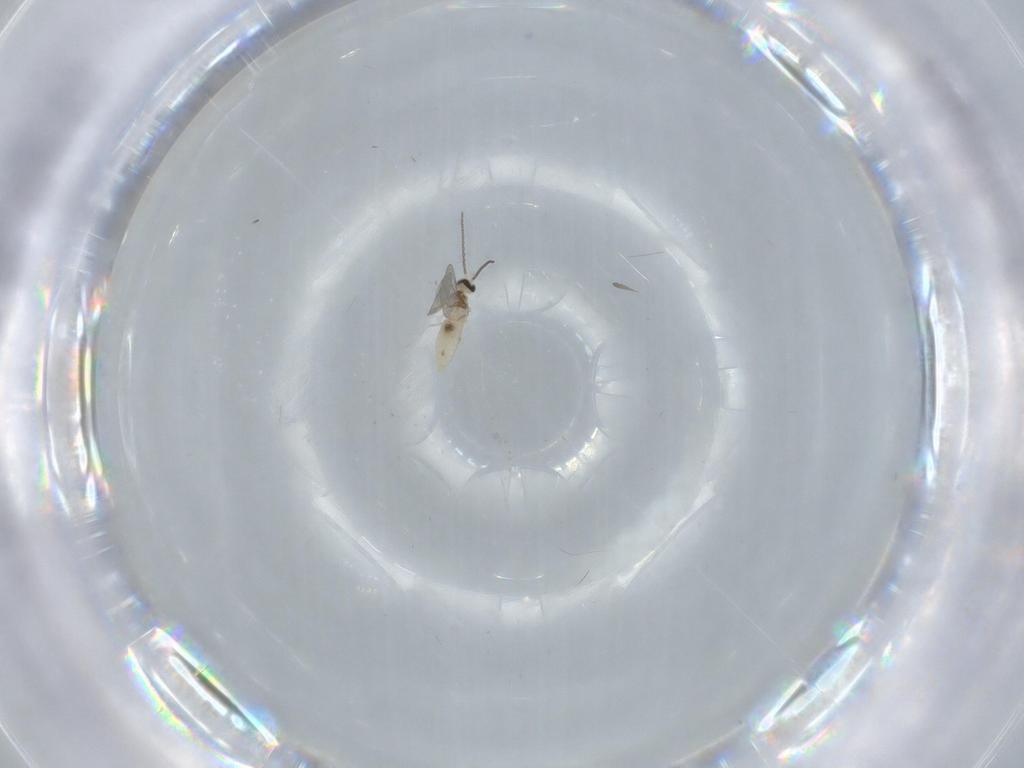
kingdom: Animalia
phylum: Arthropoda
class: Insecta
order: Diptera
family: Cecidomyiidae
